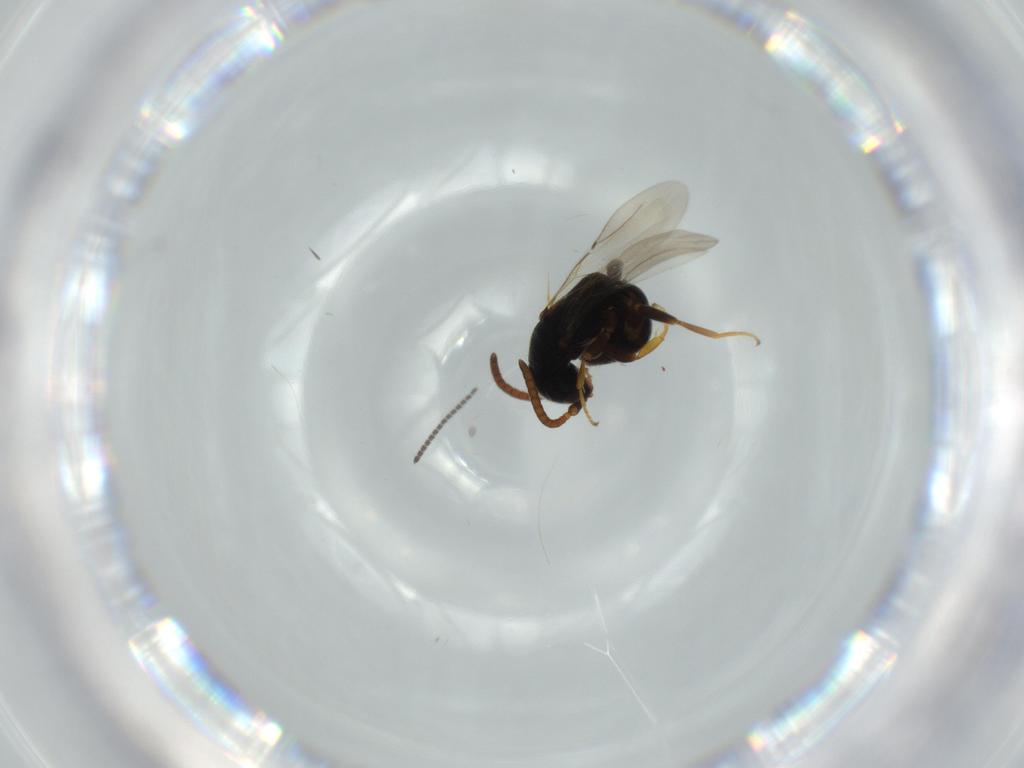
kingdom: Animalia
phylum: Arthropoda
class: Insecta
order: Hymenoptera
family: Bethylidae
